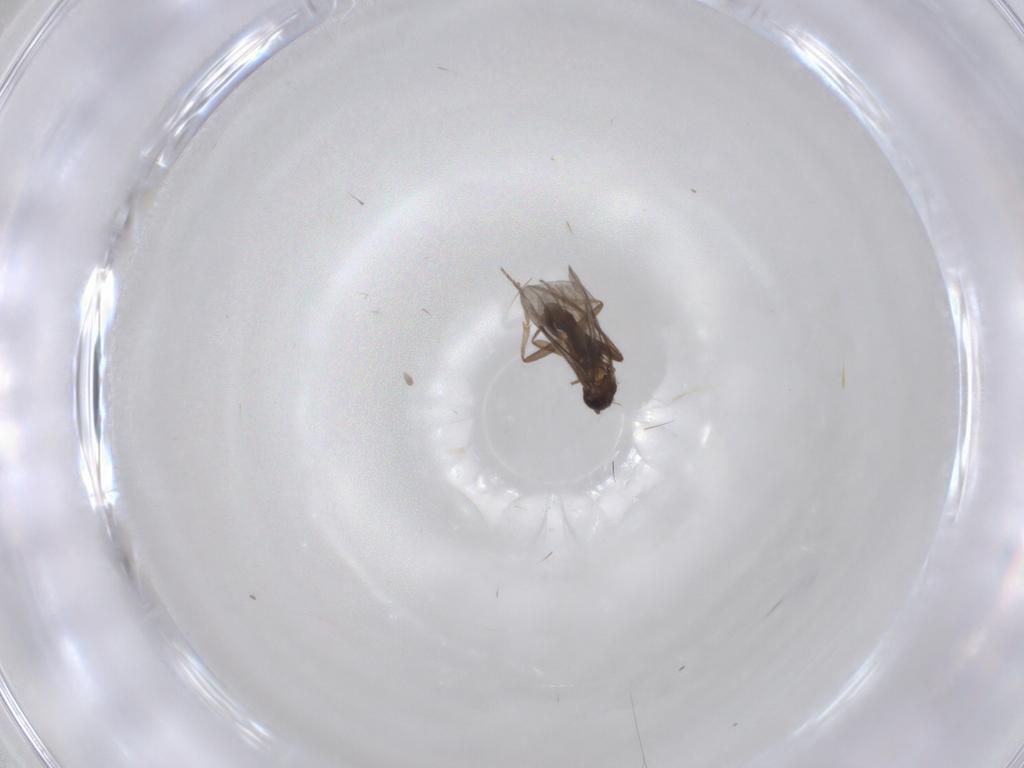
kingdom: Animalia
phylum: Arthropoda
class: Insecta
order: Diptera
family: Phoridae
